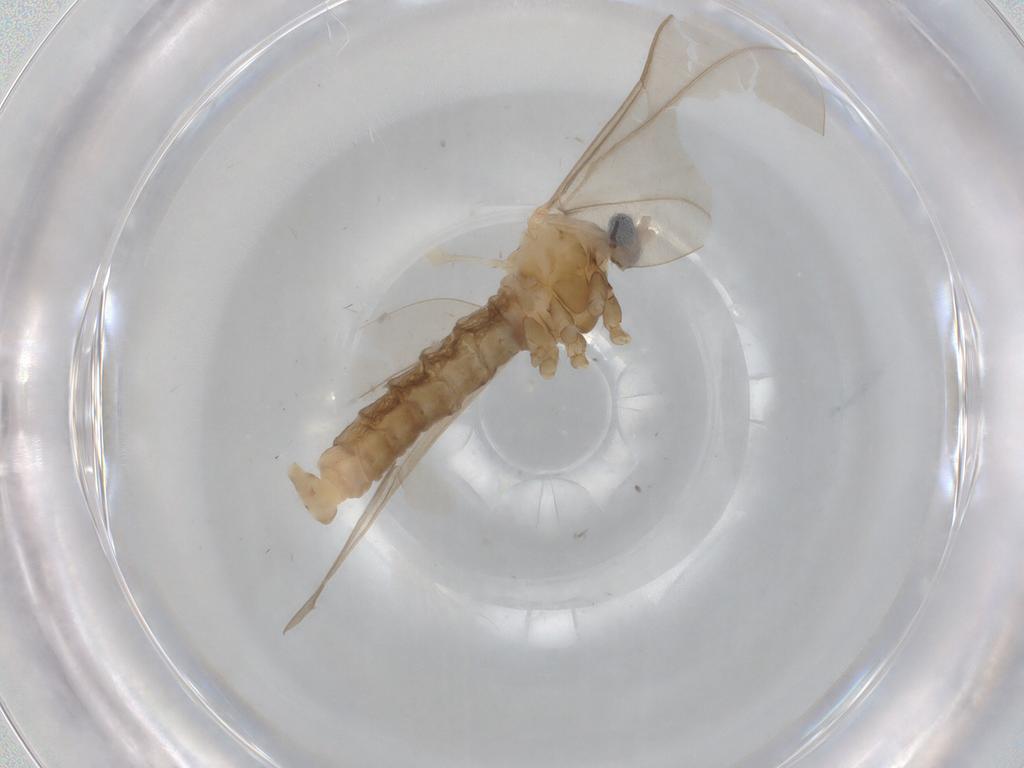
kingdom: Animalia
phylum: Arthropoda
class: Insecta
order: Diptera
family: Cecidomyiidae
